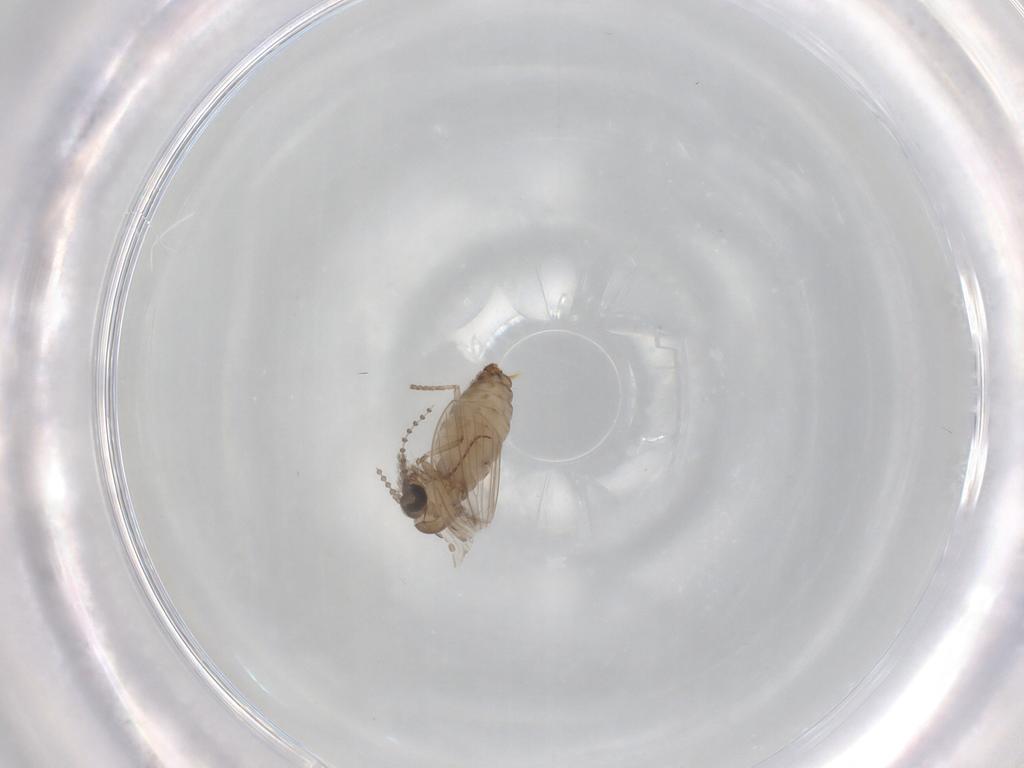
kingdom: Animalia
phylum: Arthropoda
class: Insecta
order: Diptera
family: Psychodidae
